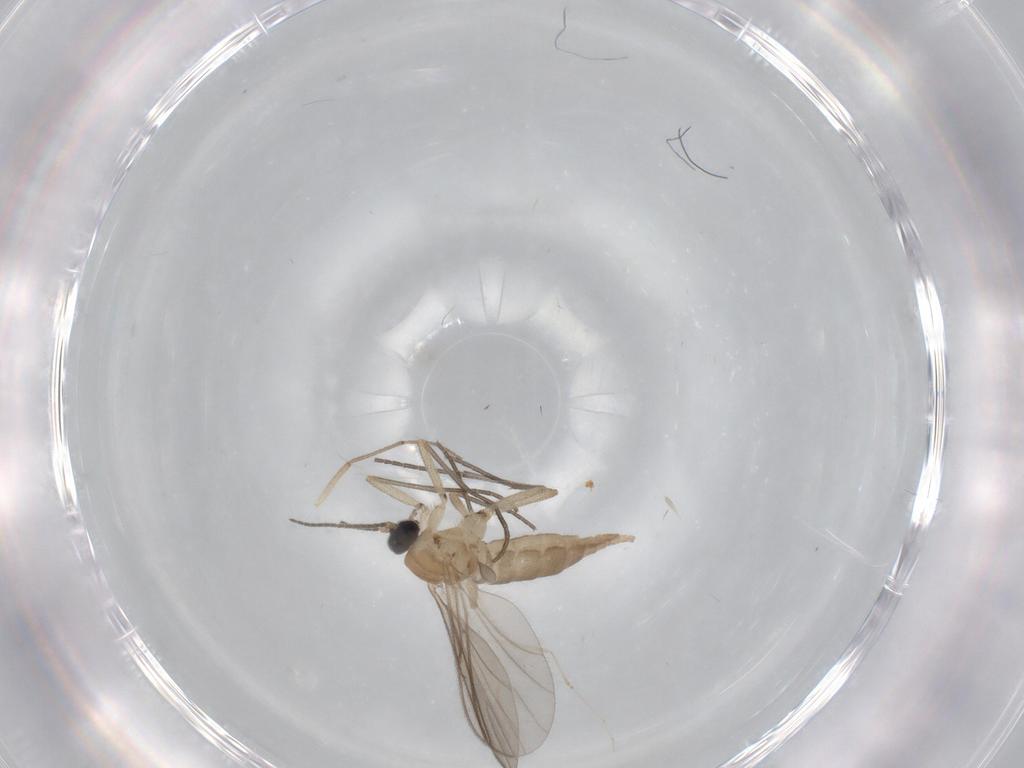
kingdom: Animalia
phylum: Arthropoda
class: Insecta
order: Diptera
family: Sciaridae
